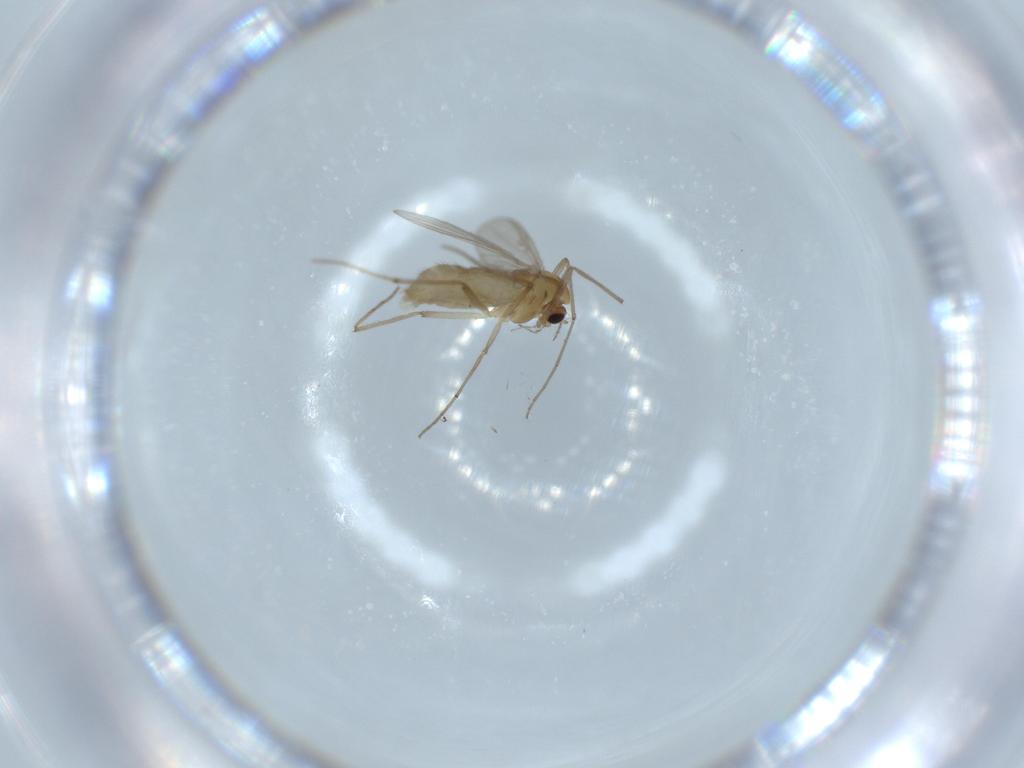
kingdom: Animalia
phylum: Arthropoda
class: Insecta
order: Diptera
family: Chironomidae
